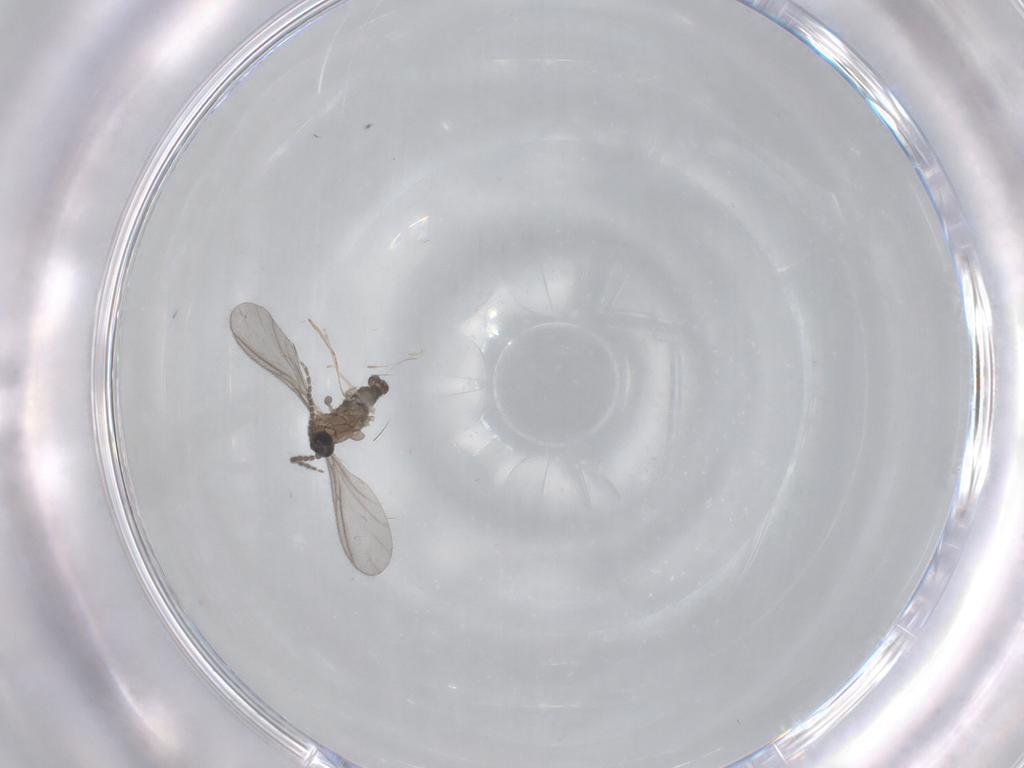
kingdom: Animalia
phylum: Arthropoda
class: Insecta
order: Diptera
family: Sciaridae
